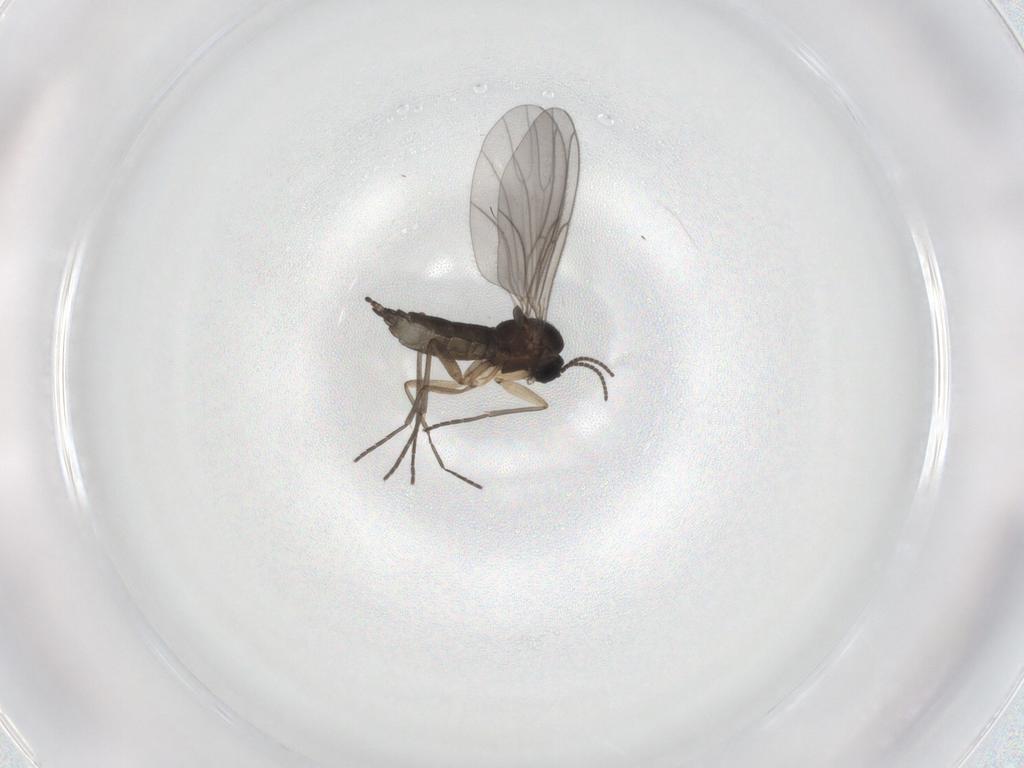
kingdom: Animalia
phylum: Arthropoda
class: Insecta
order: Diptera
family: Sciaridae
